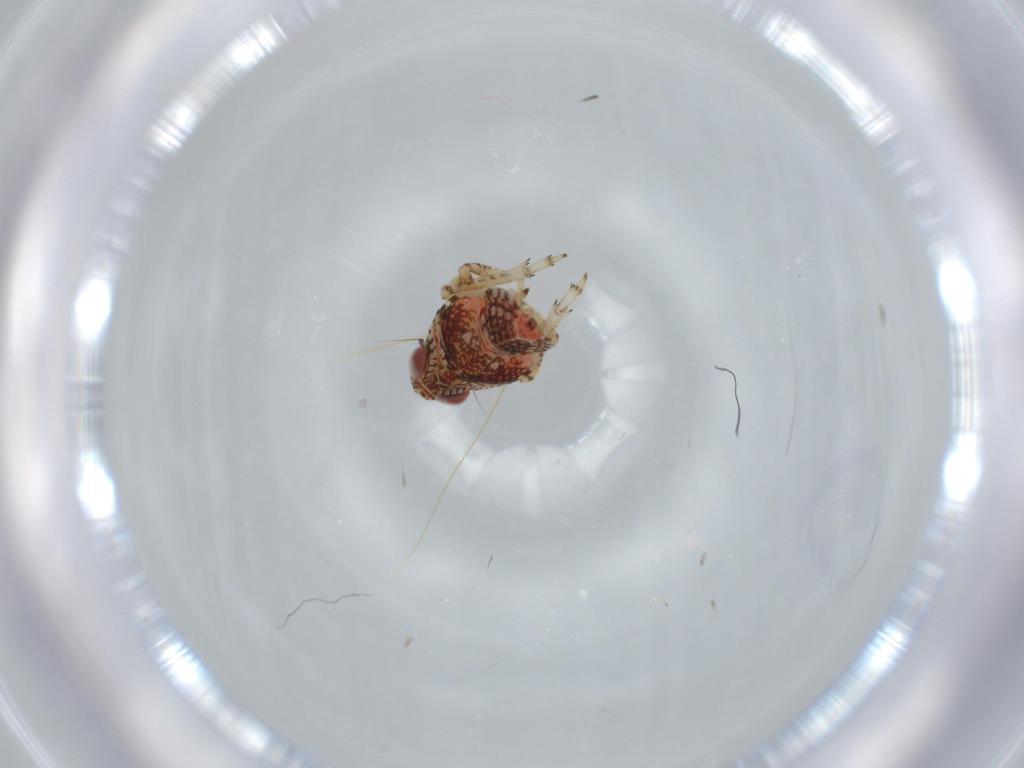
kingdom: Animalia
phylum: Arthropoda
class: Insecta
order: Hemiptera
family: Issidae
